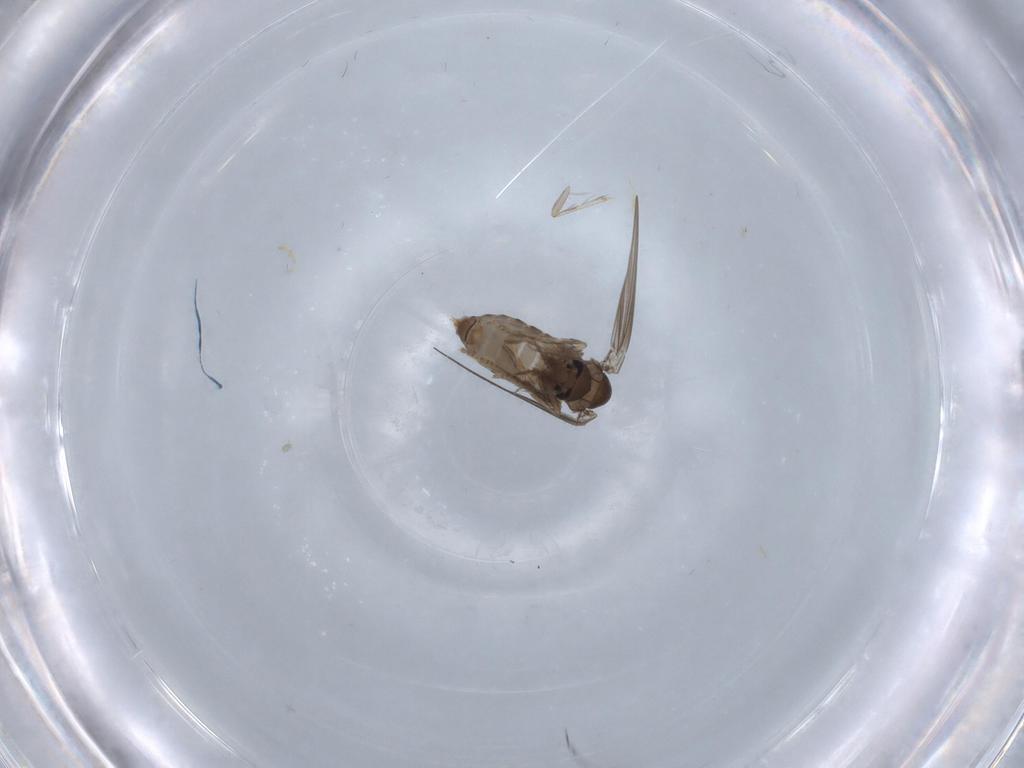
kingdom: Animalia
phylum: Arthropoda
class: Insecta
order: Diptera
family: Psychodidae
